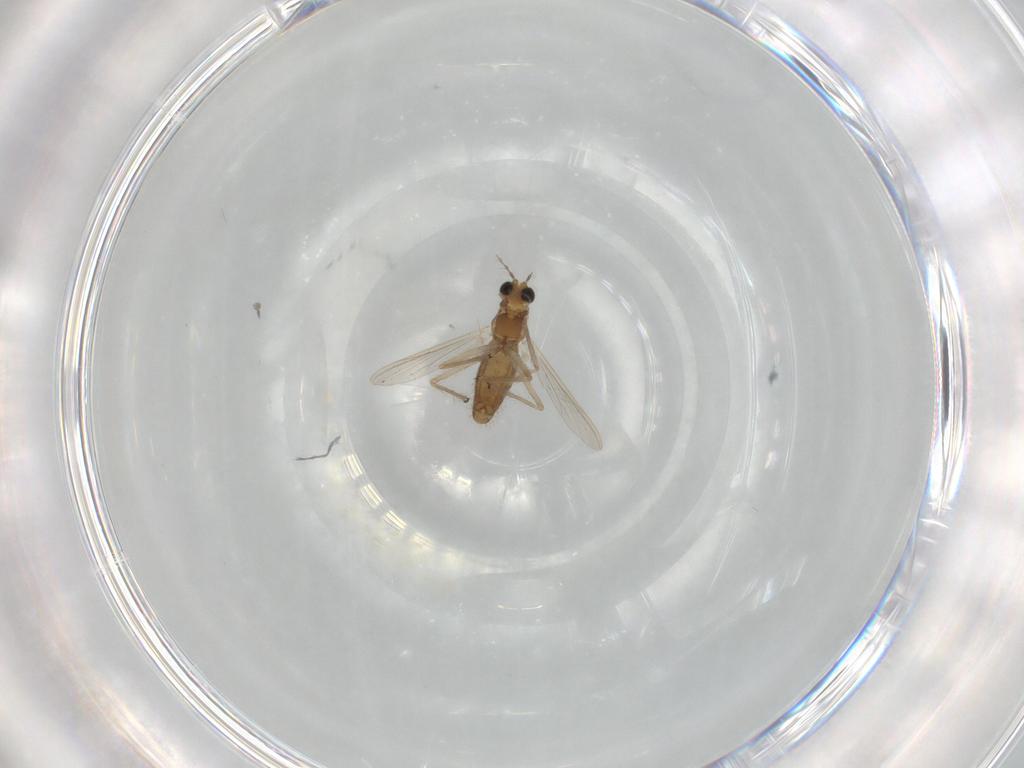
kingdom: Animalia
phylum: Arthropoda
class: Insecta
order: Diptera
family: Chironomidae
